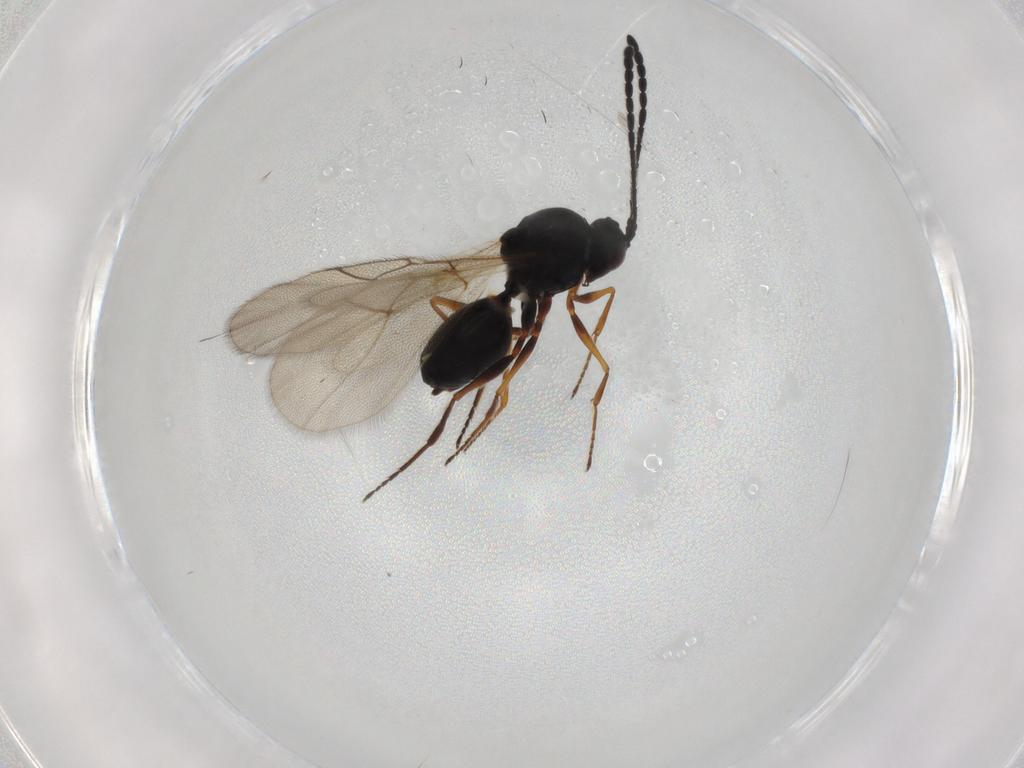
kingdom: Animalia
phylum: Arthropoda
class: Insecta
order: Hymenoptera
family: Figitidae
